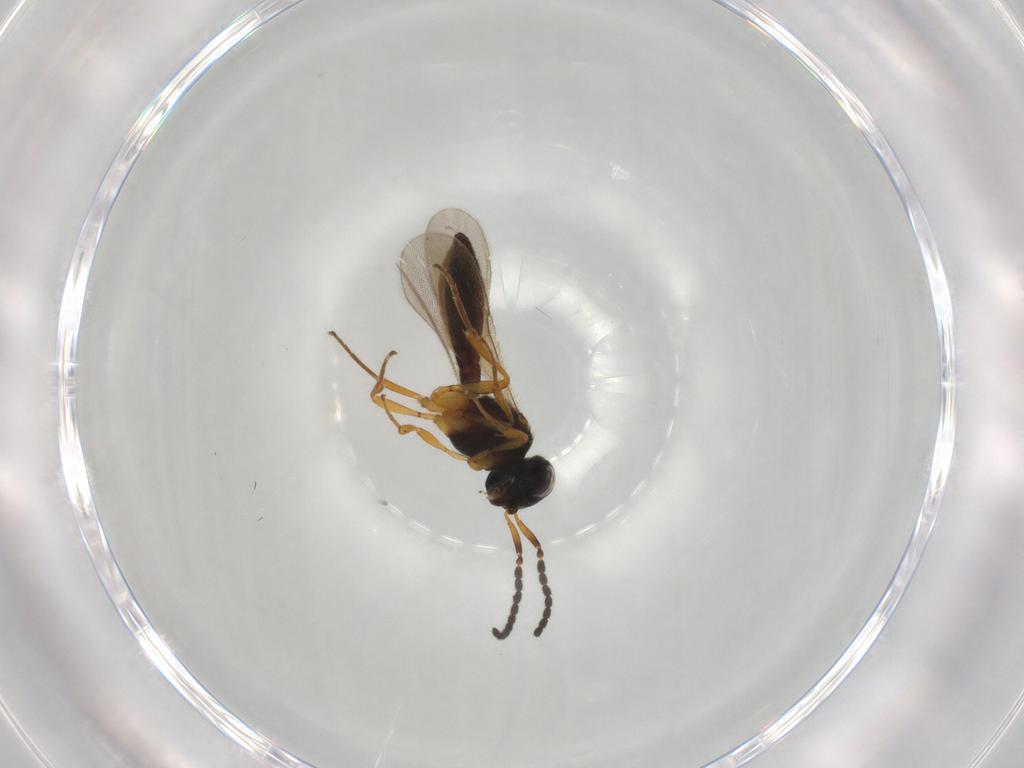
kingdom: Animalia
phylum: Arthropoda
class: Insecta
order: Hymenoptera
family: Scelionidae
